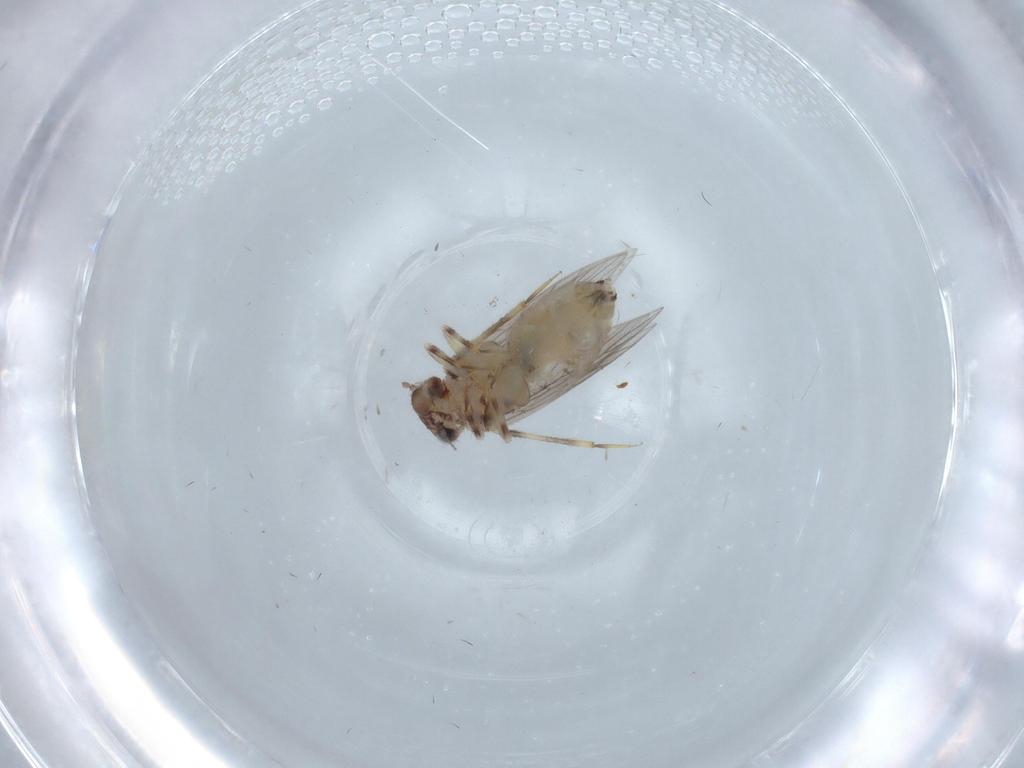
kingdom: Animalia
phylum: Arthropoda
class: Insecta
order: Psocodea
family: Lepidopsocidae
